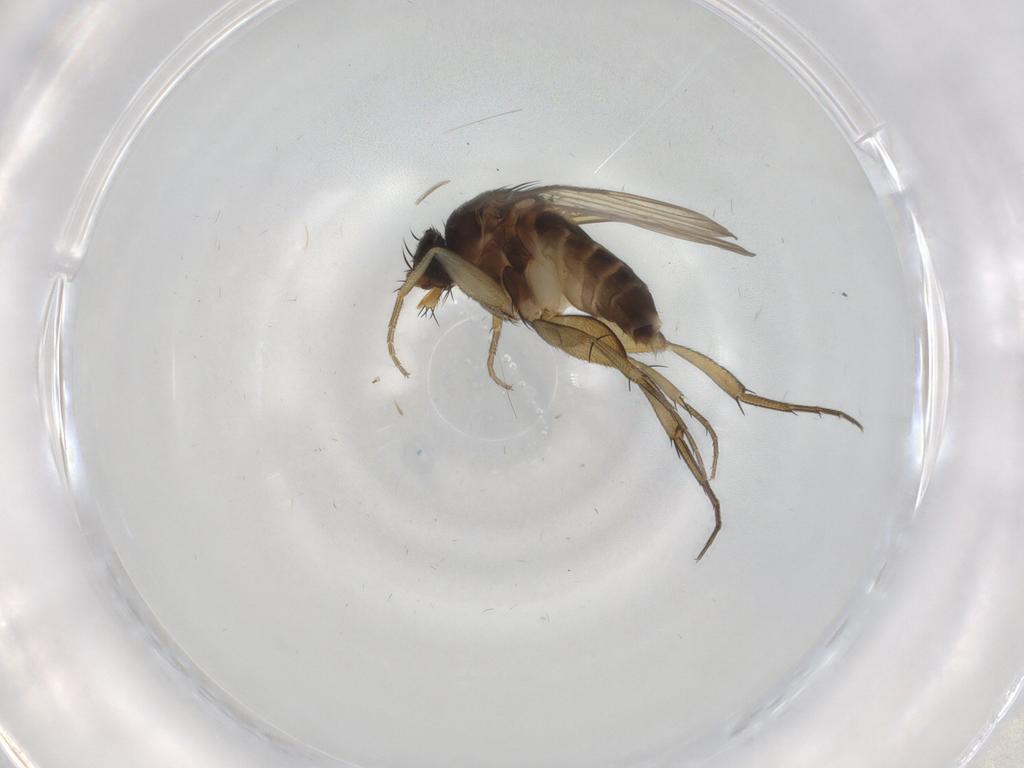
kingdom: Animalia
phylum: Arthropoda
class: Insecta
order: Diptera
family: Phoridae
